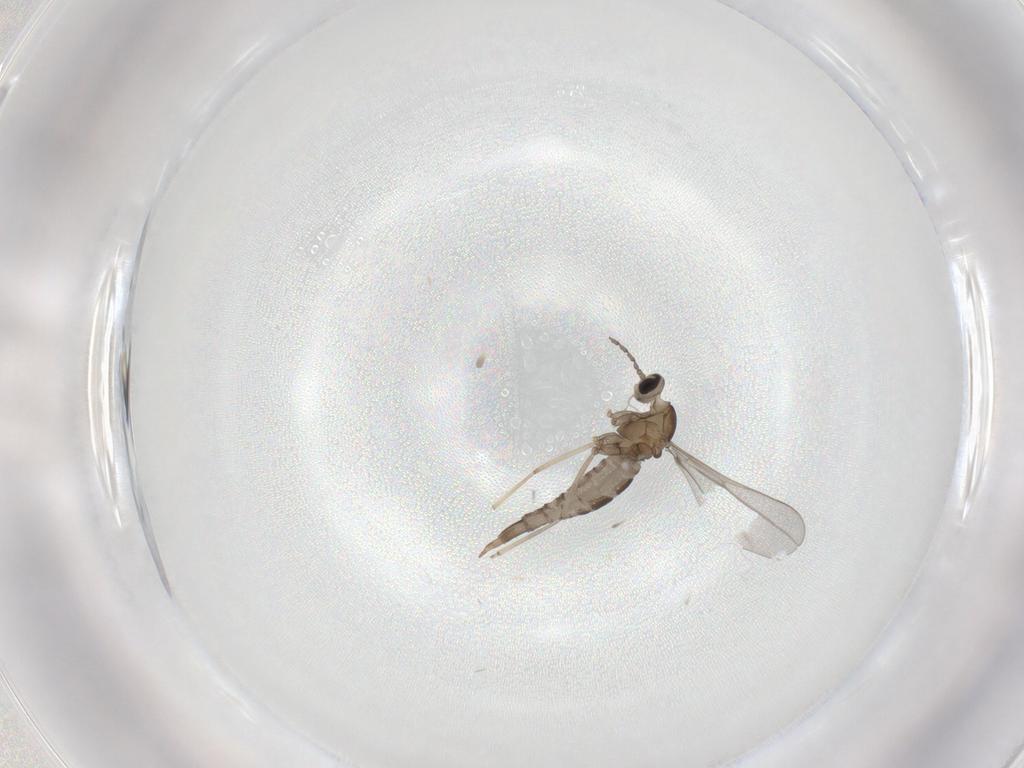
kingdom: Animalia
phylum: Arthropoda
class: Insecta
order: Diptera
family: Cecidomyiidae
